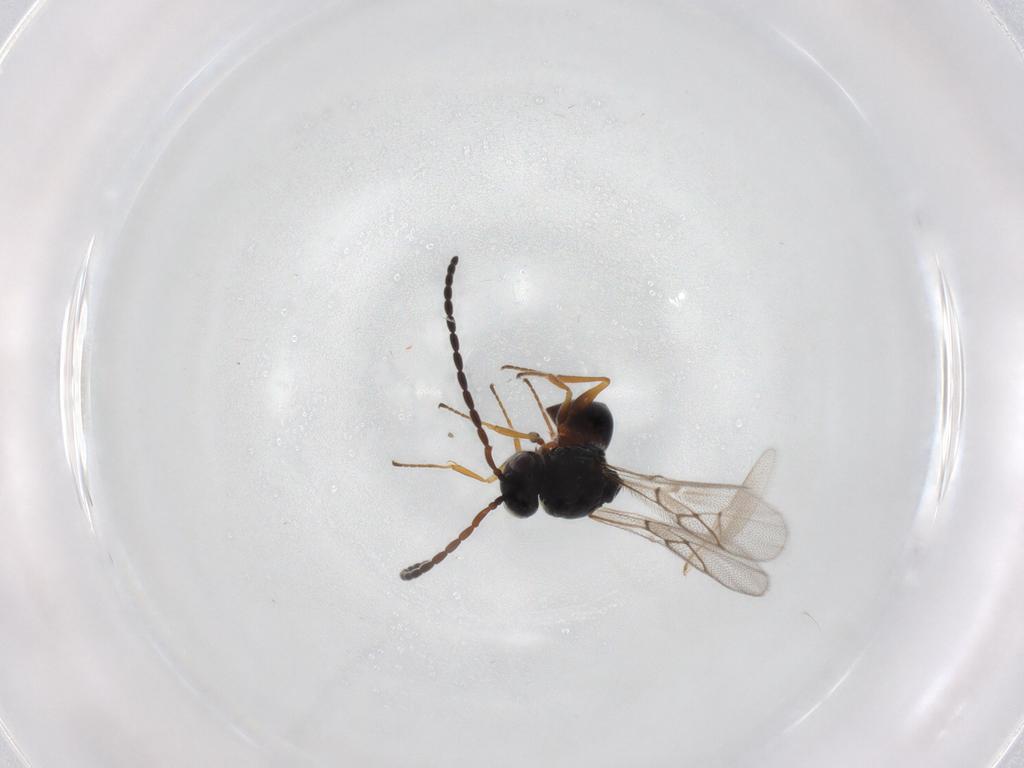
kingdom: Animalia
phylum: Arthropoda
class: Insecta
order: Hymenoptera
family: Figitidae
